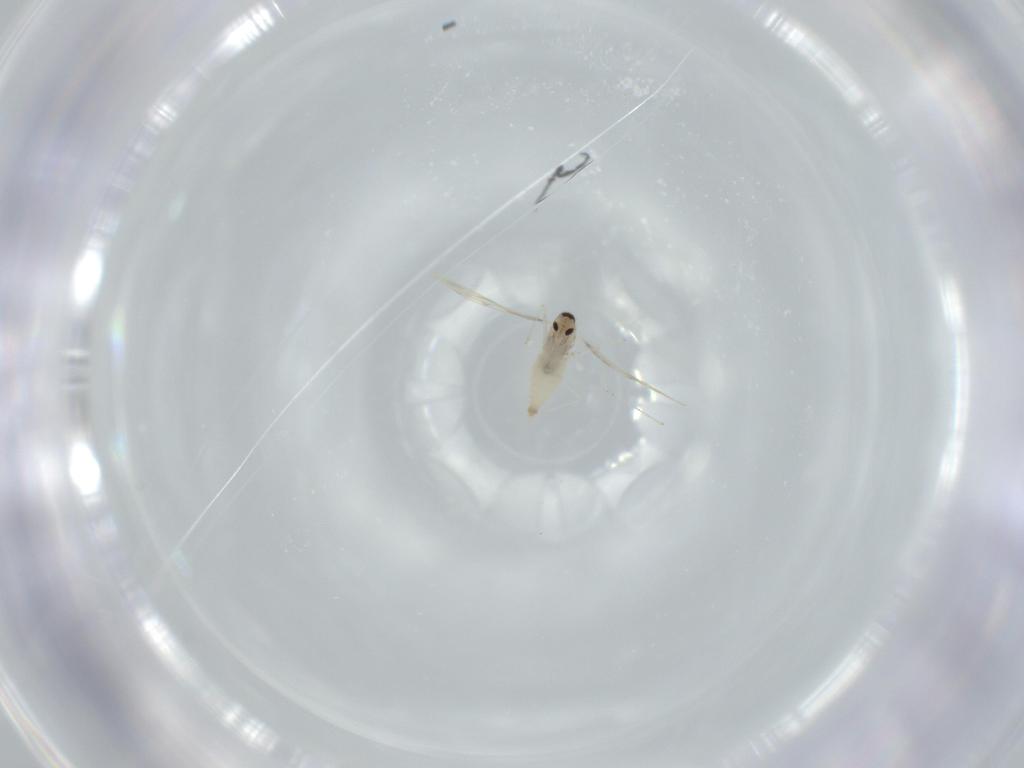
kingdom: Animalia
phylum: Arthropoda
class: Insecta
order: Diptera
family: Cecidomyiidae
